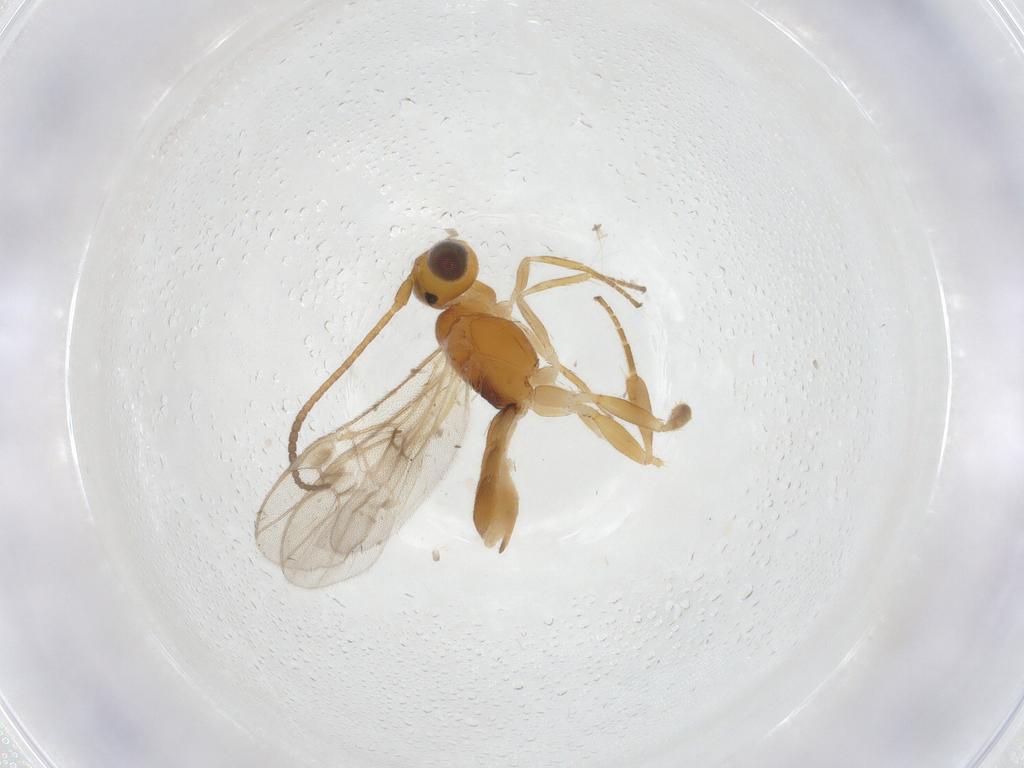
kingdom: Animalia
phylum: Arthropoda
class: Insecta
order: Hymenoptera
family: Braconidae
